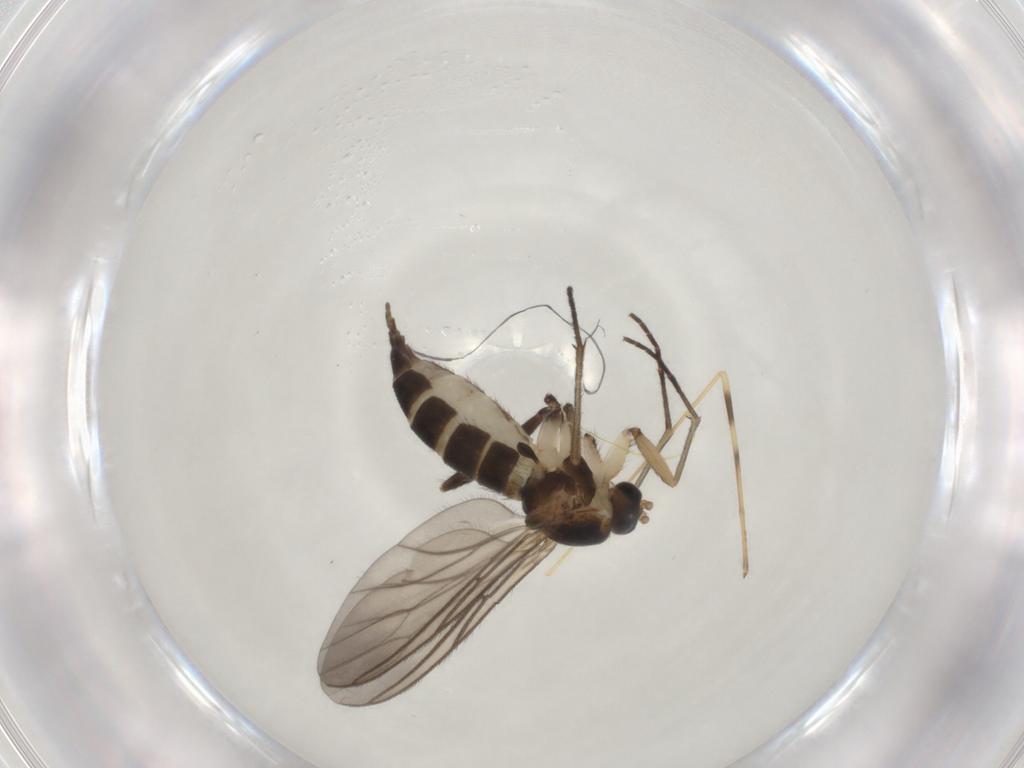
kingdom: Animalia
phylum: Arthropoda
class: Insecta
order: Diptera
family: Sciaridae
